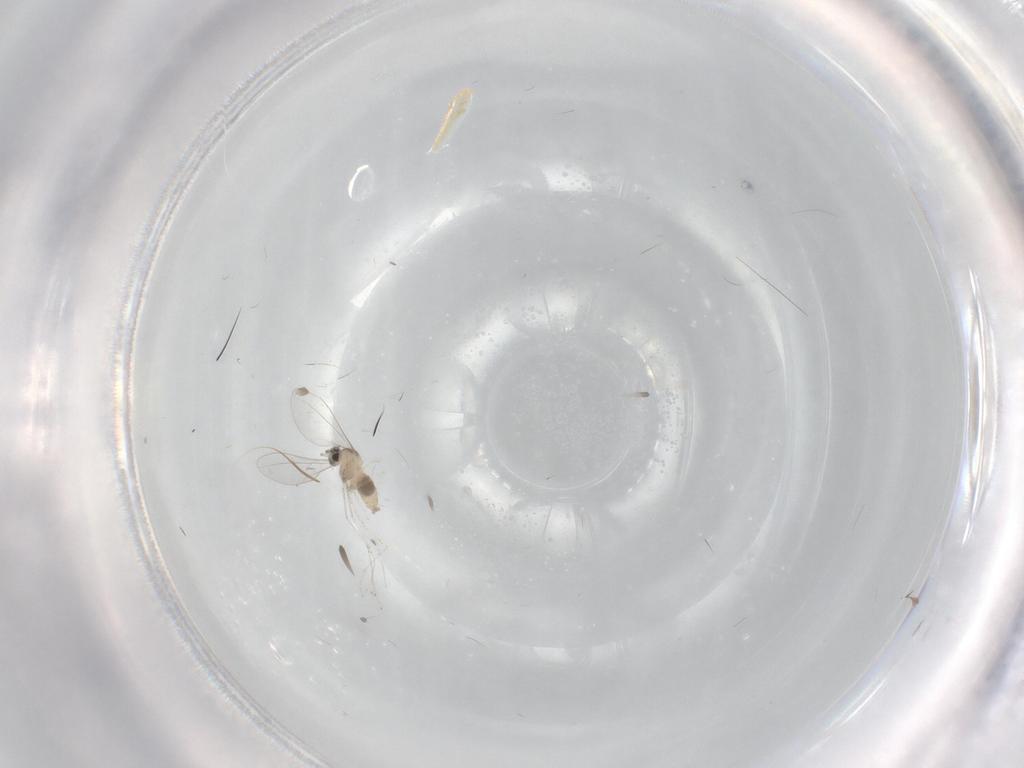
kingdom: Animalia
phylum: Arthropoda
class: Insecta
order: Diptera
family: Cecidomyiidae
